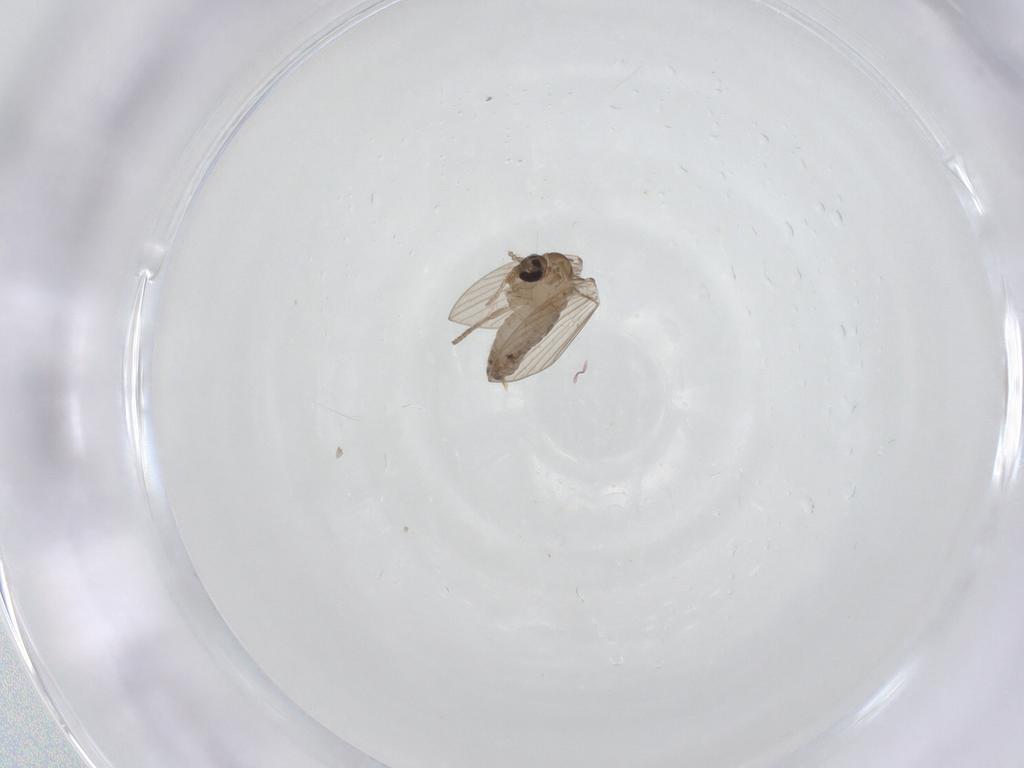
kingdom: Animalia
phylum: Arthropoda
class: Insecta
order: Diptera
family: Psychodidae
